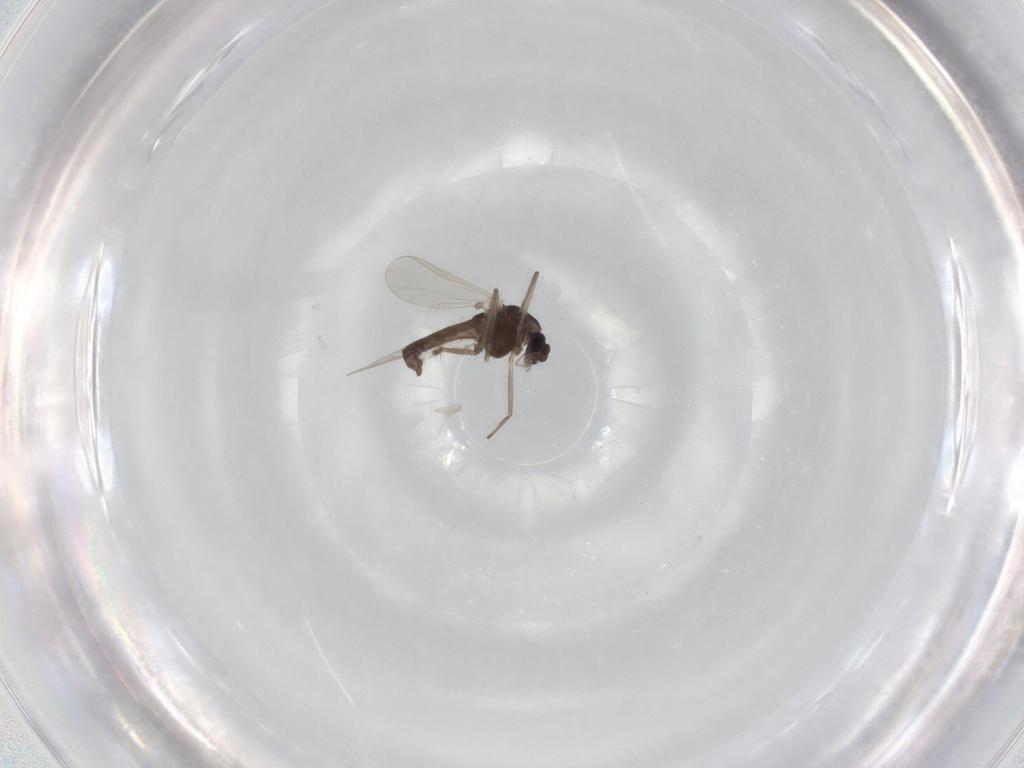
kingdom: Animalia
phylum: Arthropoda
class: Insecta
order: Diptera
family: Chironomidae
